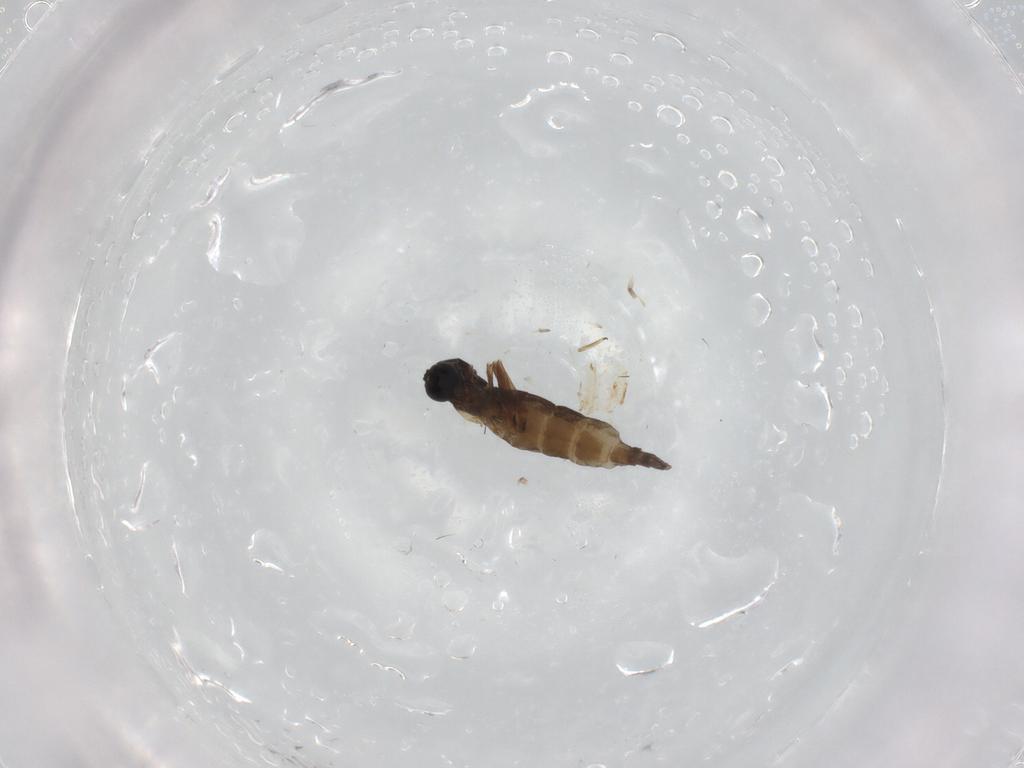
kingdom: Animalia
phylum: Arthropoda
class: Insecta
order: Diptera
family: Sciaridae
